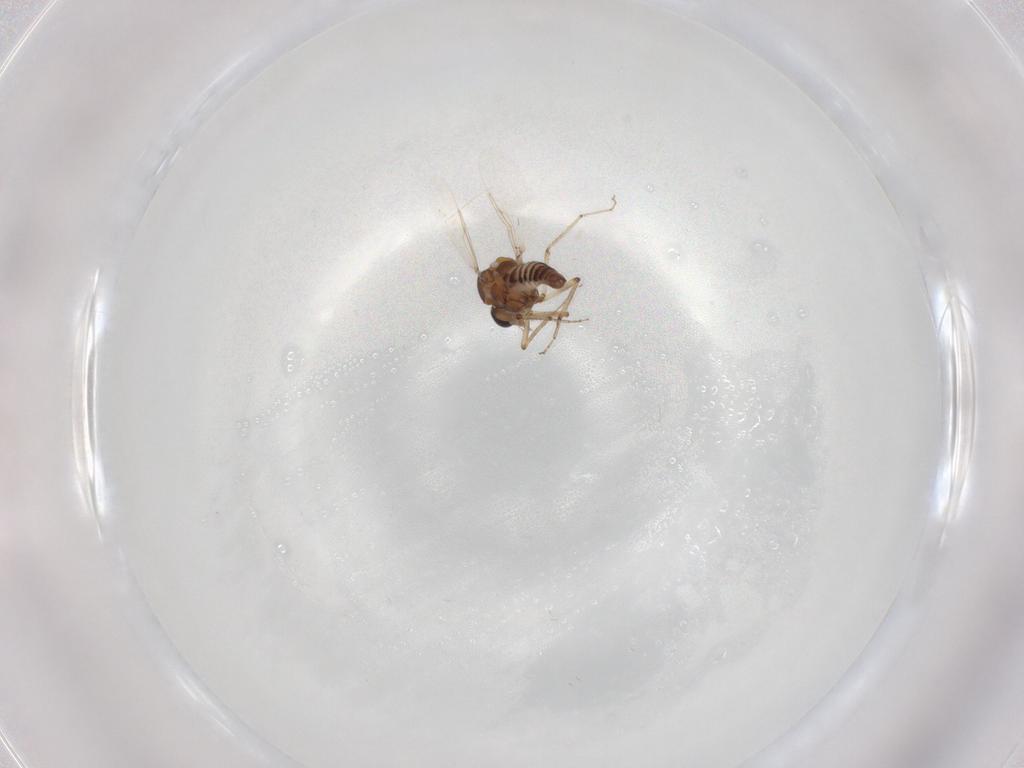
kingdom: Animalia
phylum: Arthropoda
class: Insecta
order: Diptera
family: Ceratopogonidae
